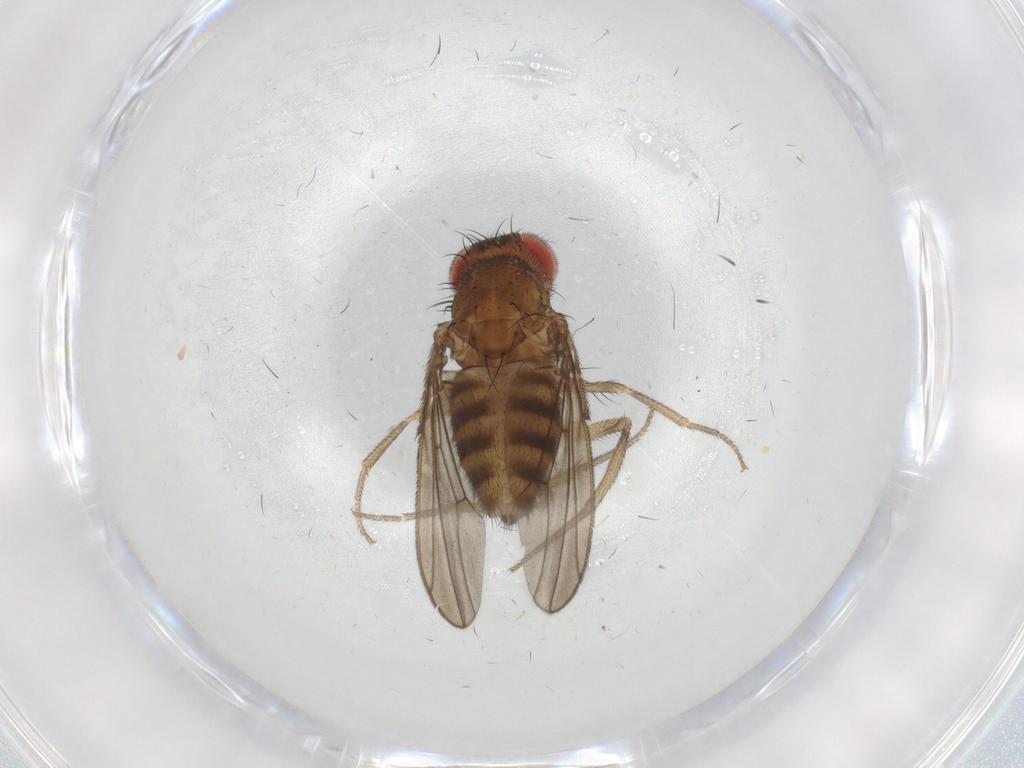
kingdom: Animalia
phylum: Arthropoda
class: Insecta
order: Diptera
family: Drosophilidae
